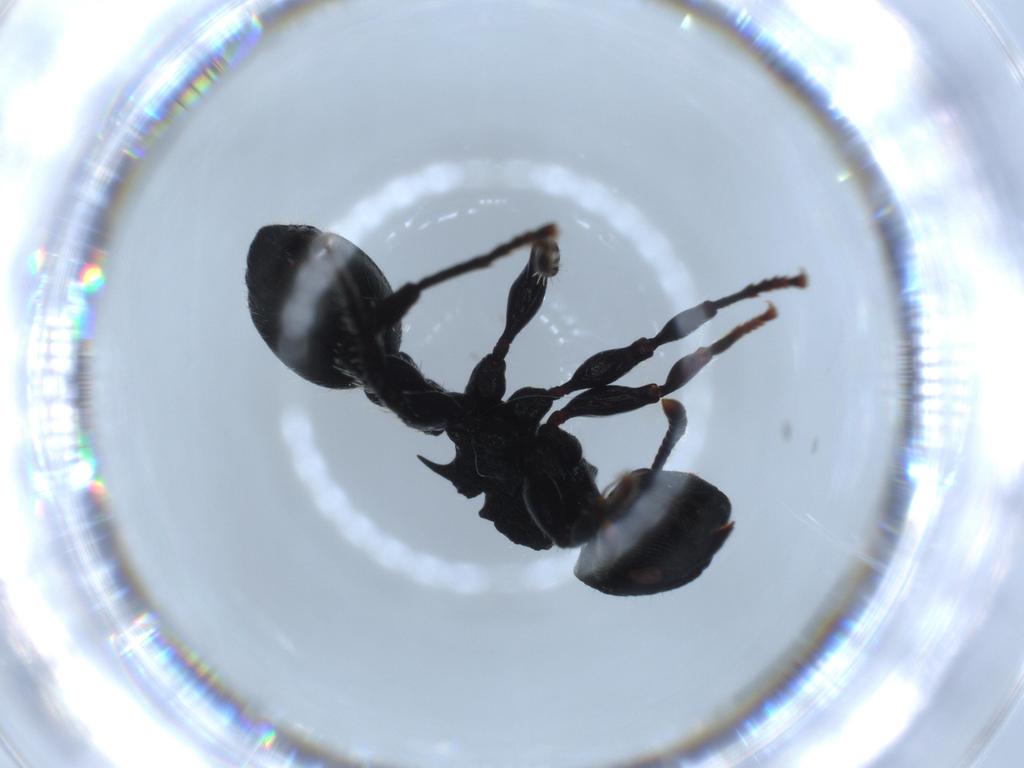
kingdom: Animalia
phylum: Arthropoda
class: Insecta
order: Hymenoptera
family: Formicidae
